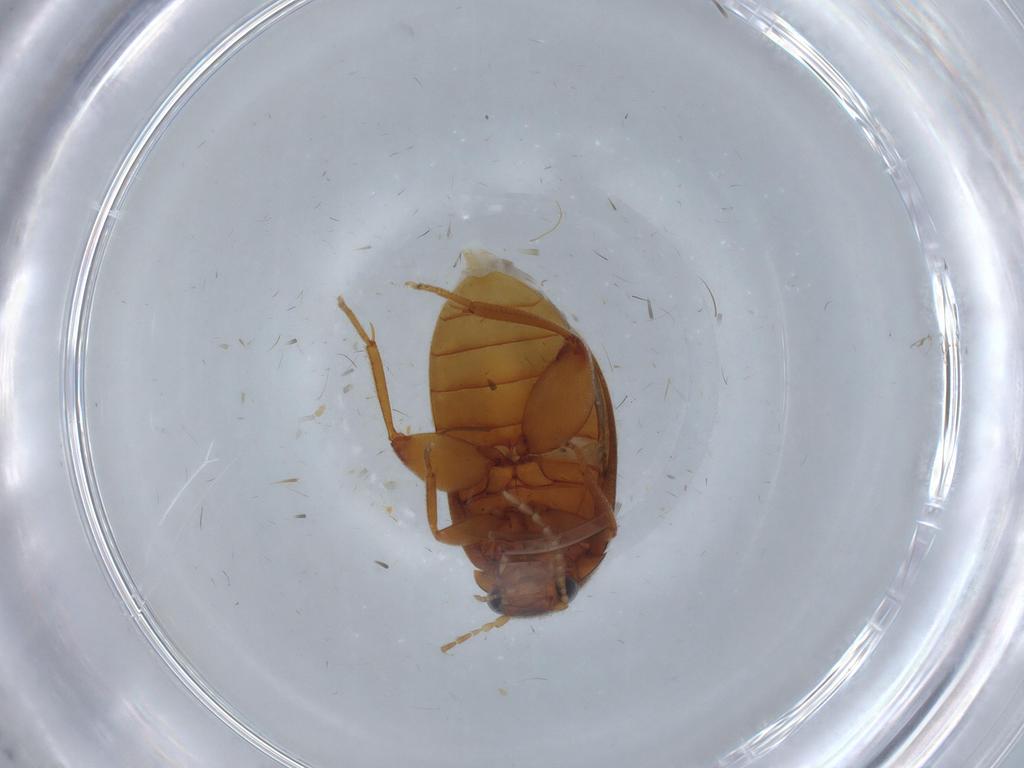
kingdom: Animalia
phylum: Arthropoda
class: Insecta
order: Coleoptera
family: Scirtidae
